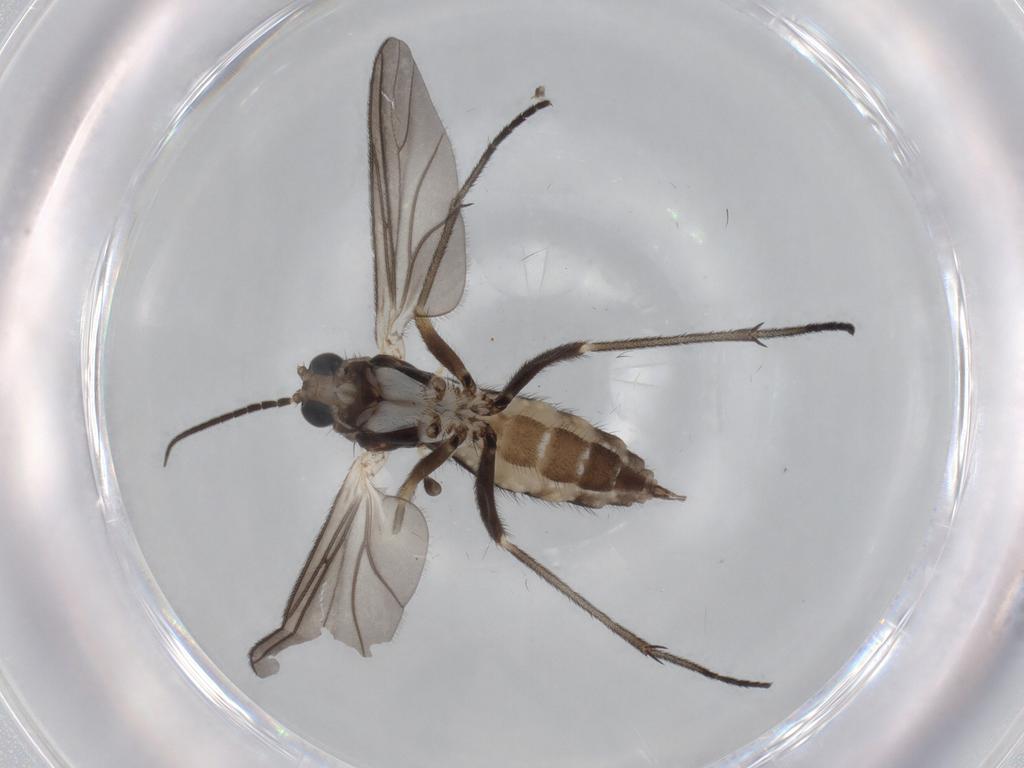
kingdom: Animalia
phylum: Arthropoda
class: Insecta
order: Diptera
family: Sciaridae
